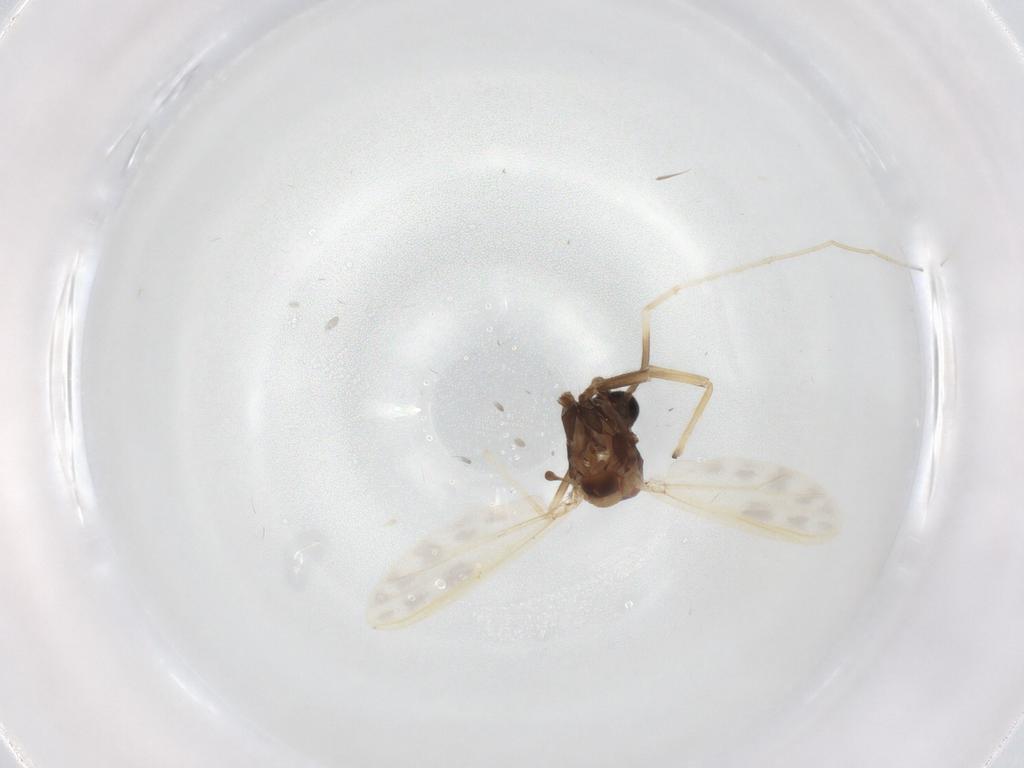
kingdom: Animalia
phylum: Arthropoda
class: Insecta
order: Diptera
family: Cecidomyiidae
